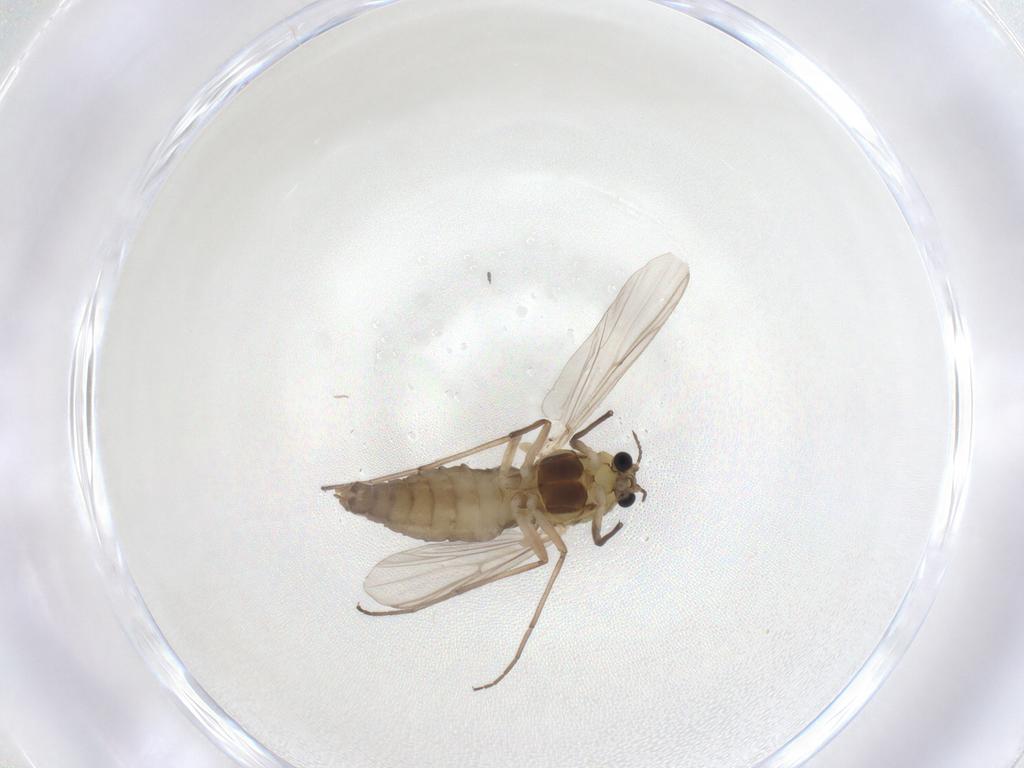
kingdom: Animalia
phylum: Arthropoda
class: Insecta
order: Diptera
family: Chironomidae
